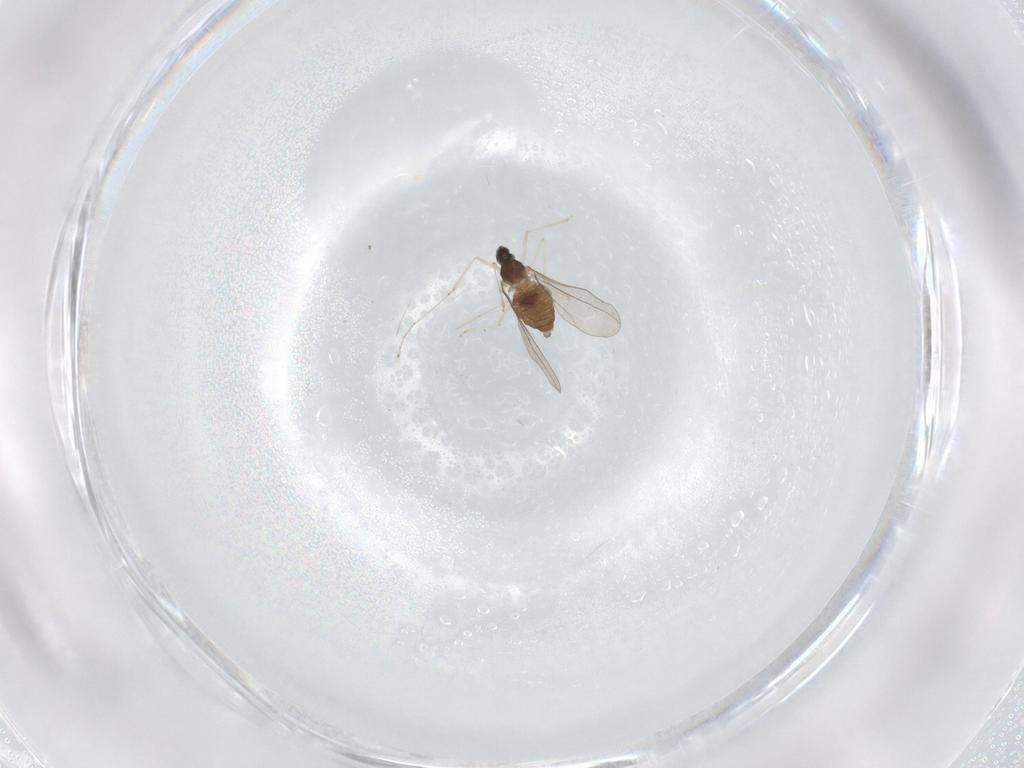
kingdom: Animalia
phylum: Arthropoda
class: Insecta
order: Diptera
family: Cecidomyiidae
